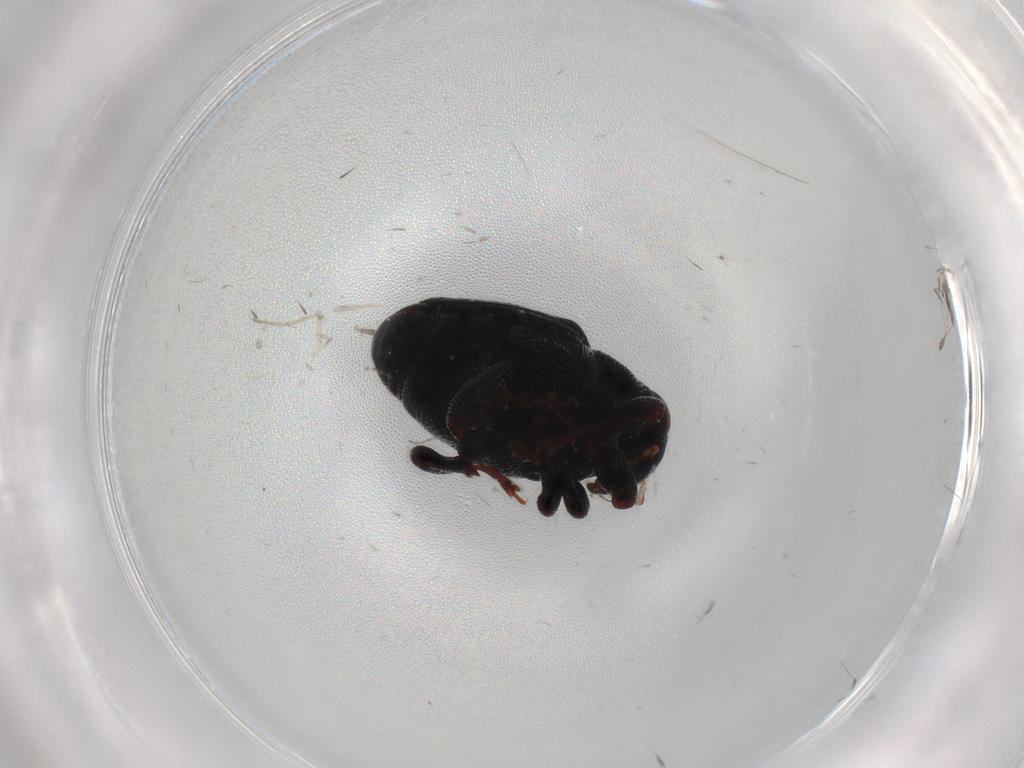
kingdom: Animalia
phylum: Arthropoda
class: Insecta
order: Coleoptera
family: Curculionidae
